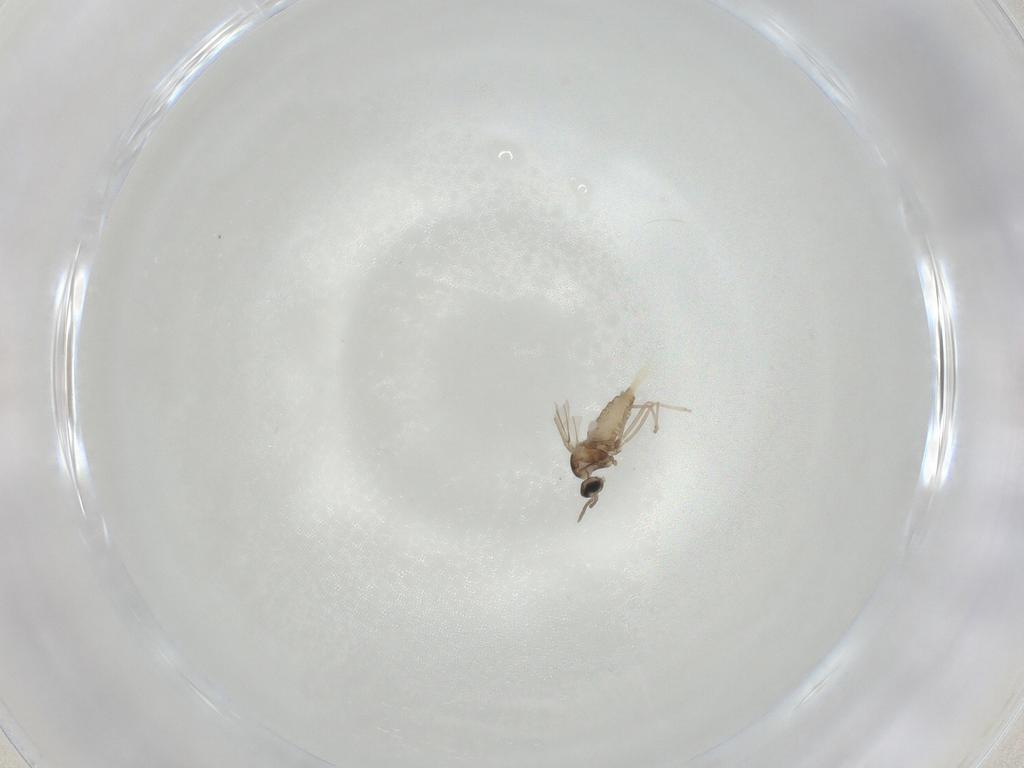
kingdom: Animalia
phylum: Arthropoda
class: Insecta
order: Diptera
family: Cecidomyiidae
